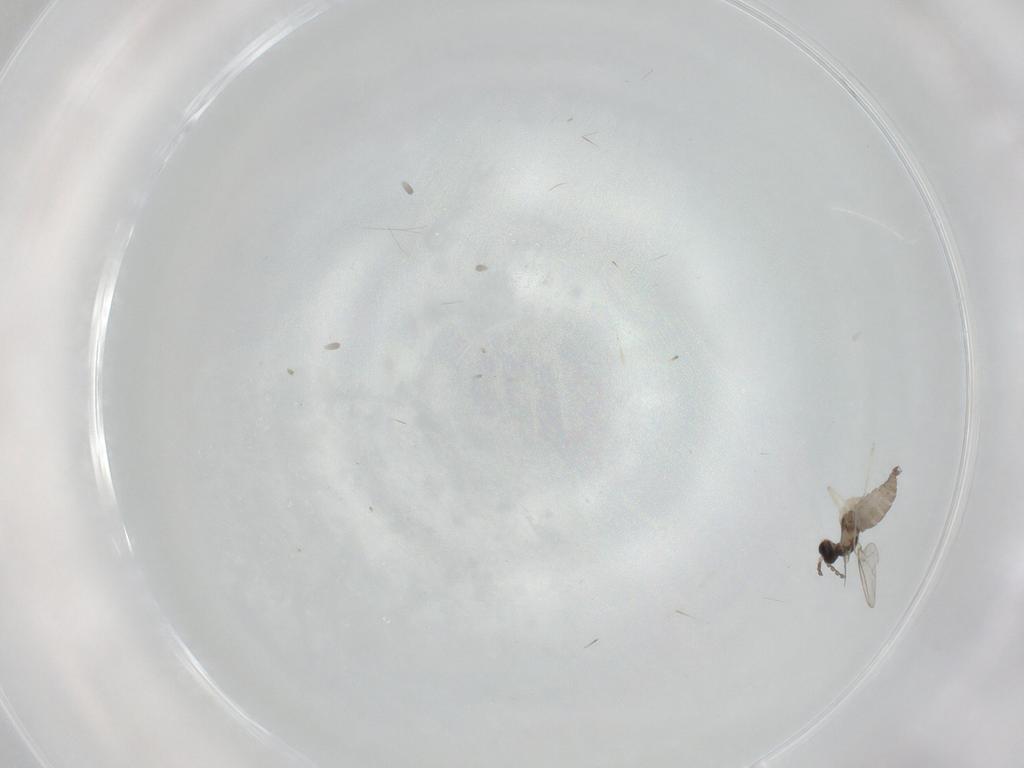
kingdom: Animalia
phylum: Arthropoda
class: Insecta
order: Diptera
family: Cecidomyiidae
